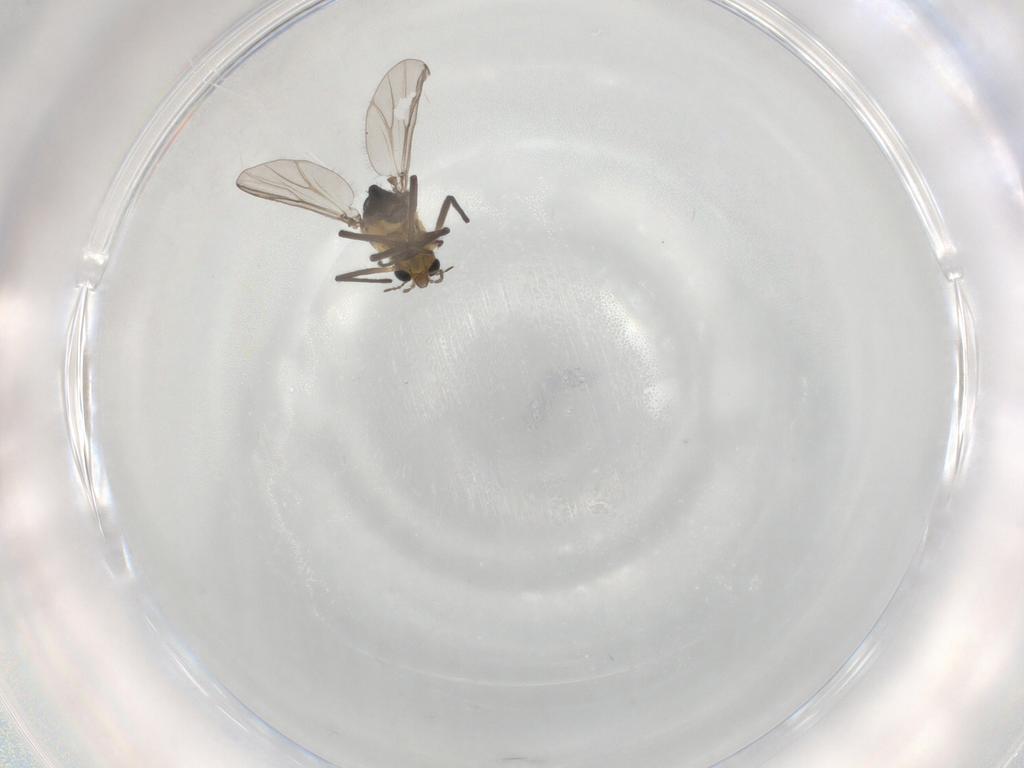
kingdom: Animalia
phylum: Arthropoda
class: Insecta
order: Diptera
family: Chironomidae
